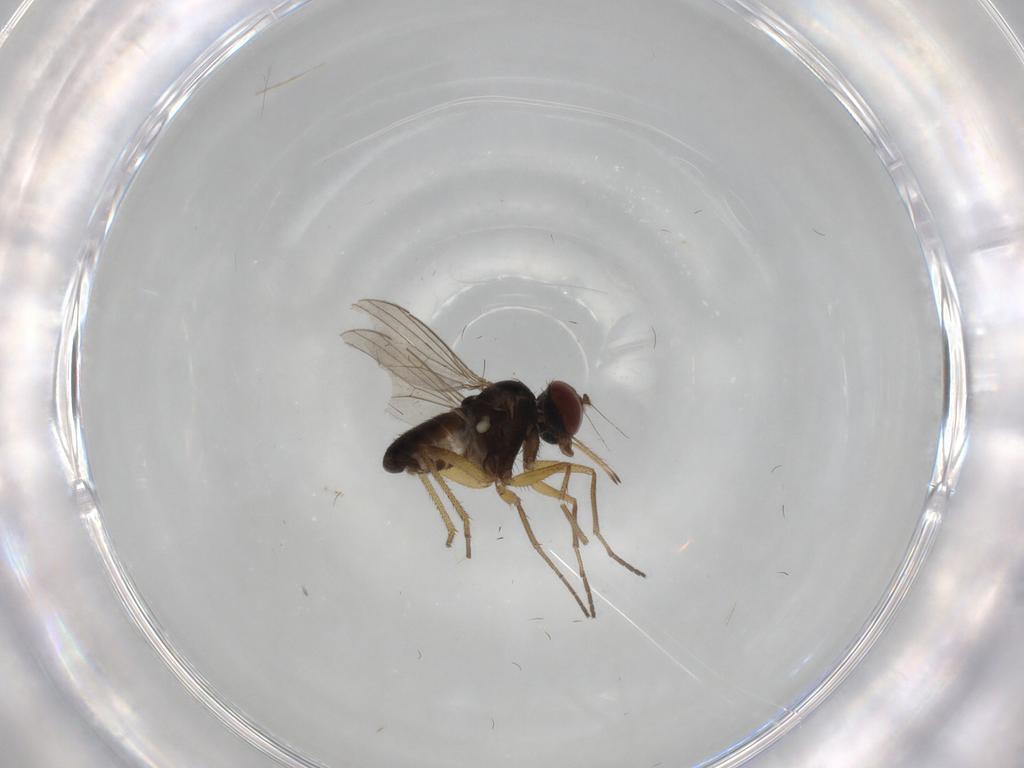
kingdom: Animalia
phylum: Arthropoda
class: Insecta
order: Diptera
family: Dolichopodidae
